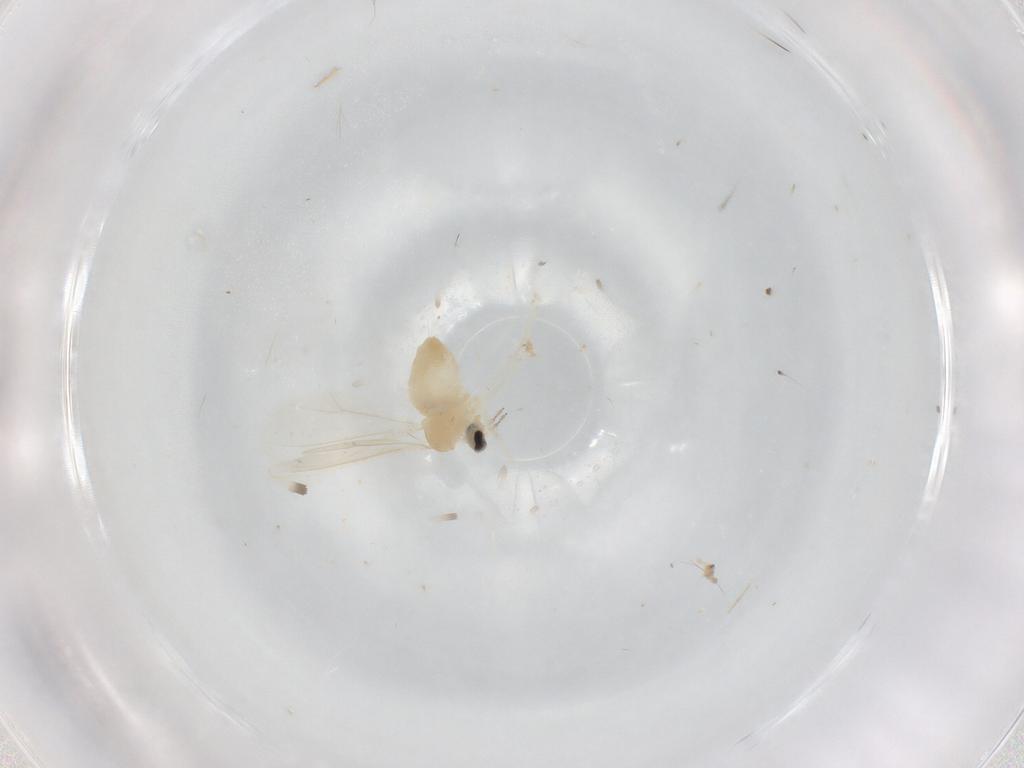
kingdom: Animalia
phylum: Arthropoda
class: Insecta
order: Diptera
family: Cecidomyiidae
